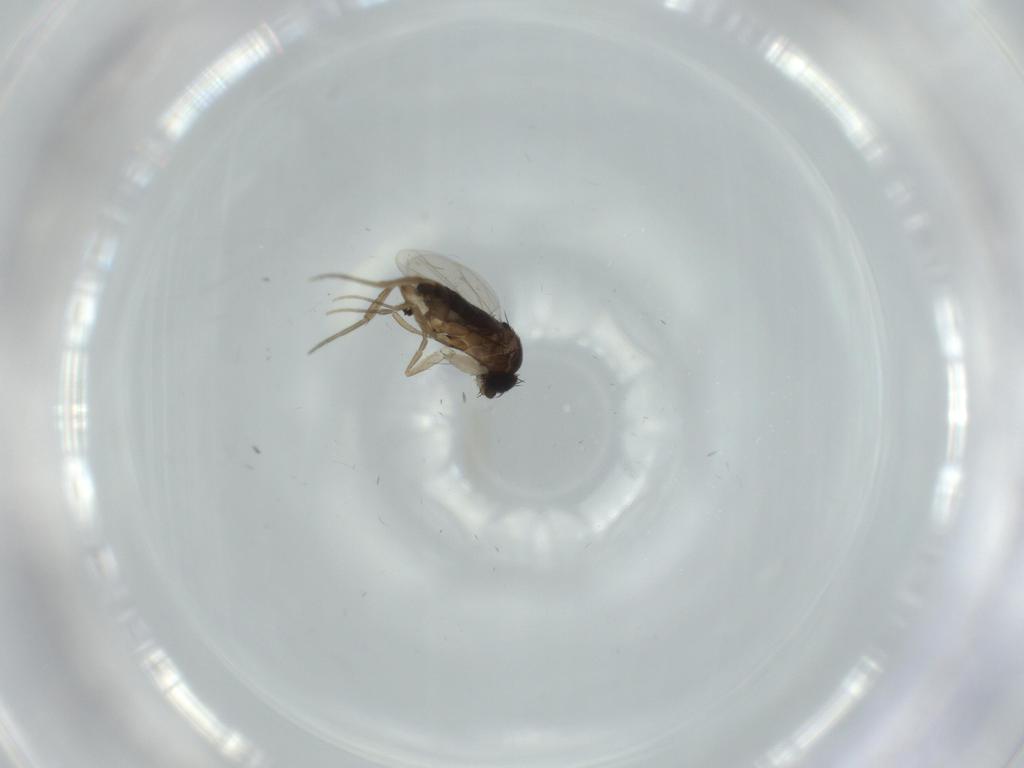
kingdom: Animalia
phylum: Arthropoda
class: Insecta
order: Diptera
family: Phoridae
